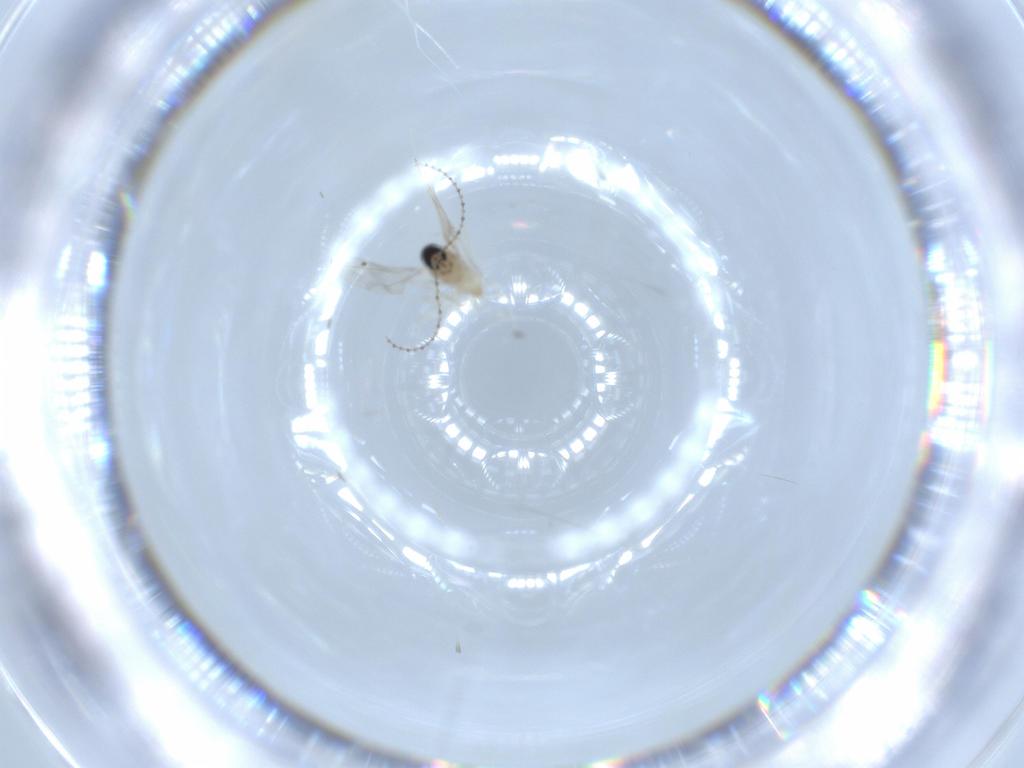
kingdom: Animalia
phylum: Arthropoda
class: Insecta
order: Diptera
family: Cecidomyiidae
